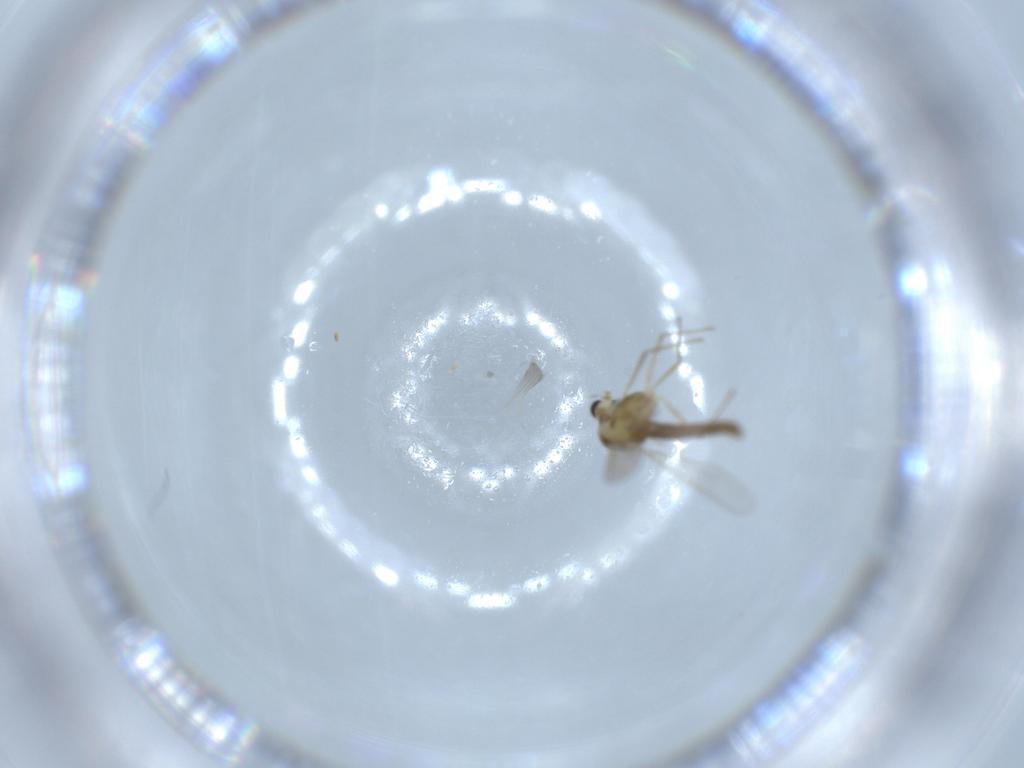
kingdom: Animalia
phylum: Arthropoda
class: Insecta
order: Diptera
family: Chironomidae
